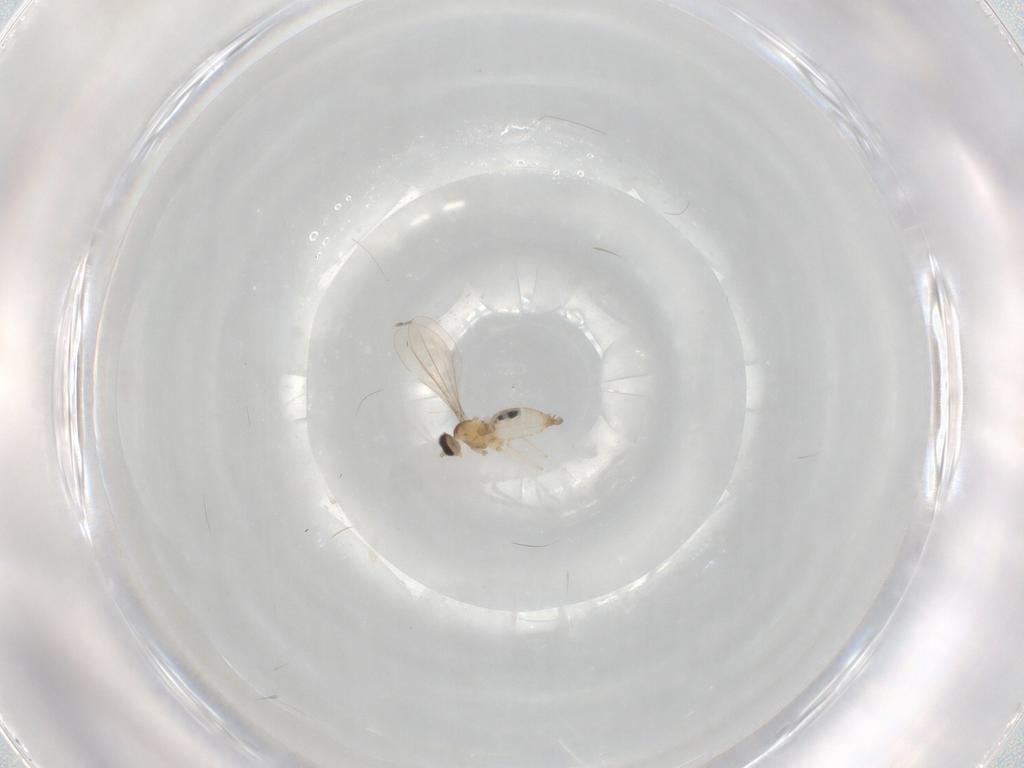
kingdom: Animalia
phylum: Arthropoda
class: Insecta
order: Diptera
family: Cecidomyiidae
